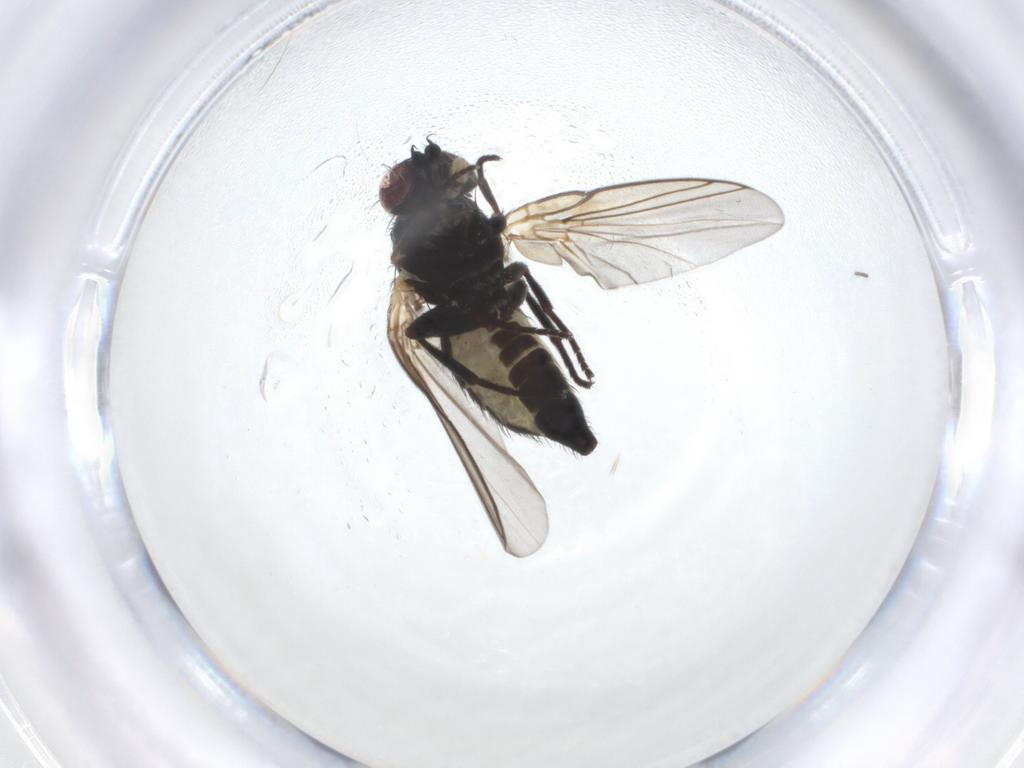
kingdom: Animalia
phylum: Arthropoda
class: Insecta
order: Diptera
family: Agromyzidae
